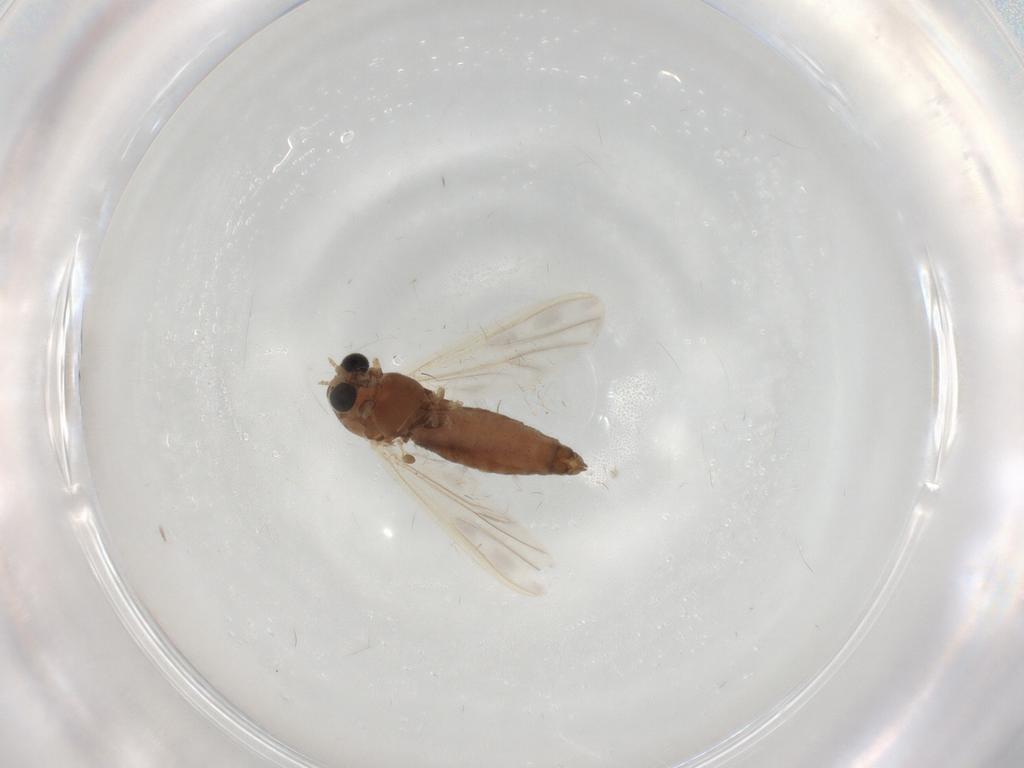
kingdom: Animalia
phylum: Arthropoda
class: Insecta
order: Diptera
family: Chironomidae
